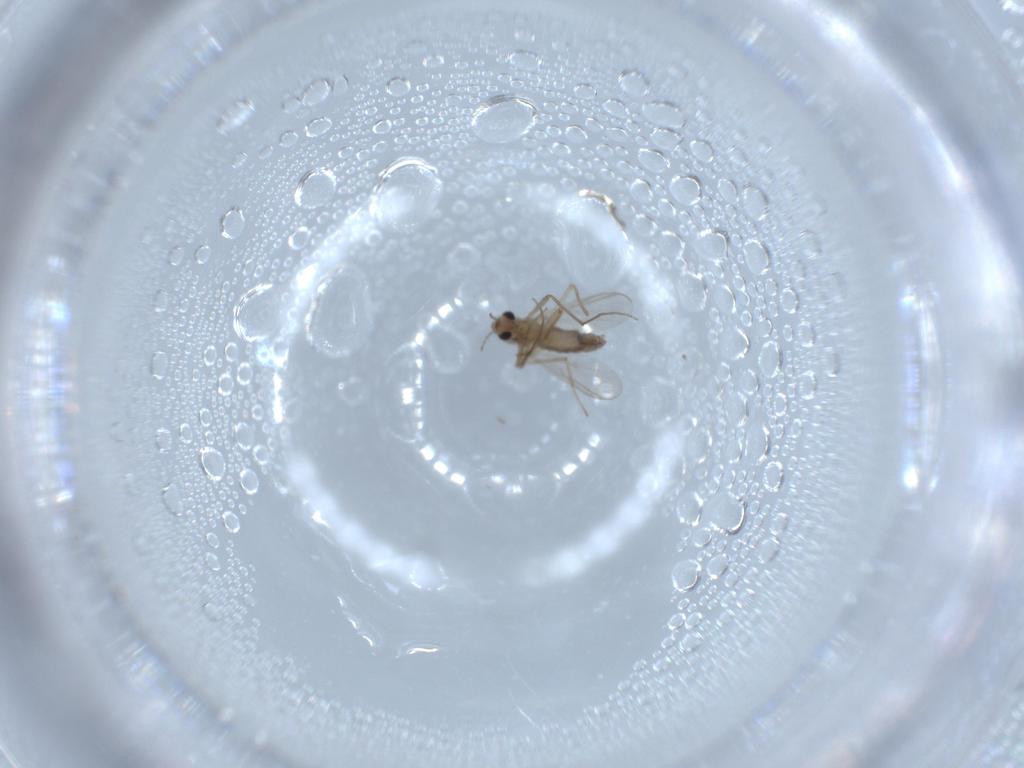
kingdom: Animalia
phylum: Arthropoda
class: Insecta
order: Diptera
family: Chironomidae
